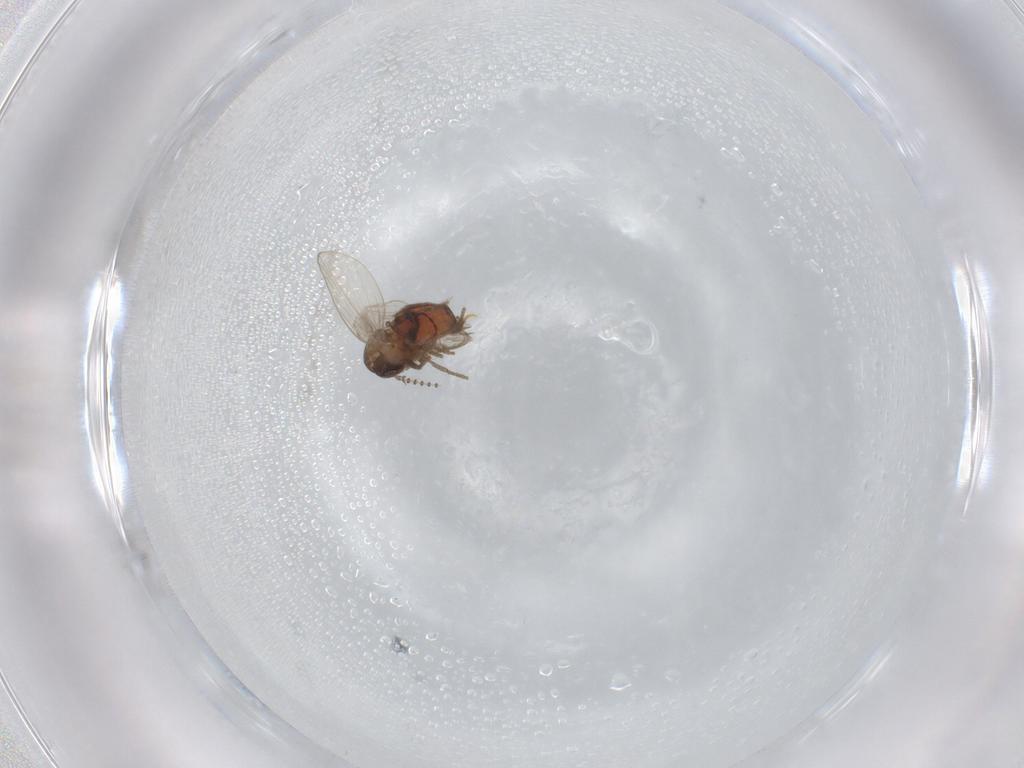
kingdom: Animalia
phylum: Arthropoda
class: Insecta
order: Diptera
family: Psychodidae
